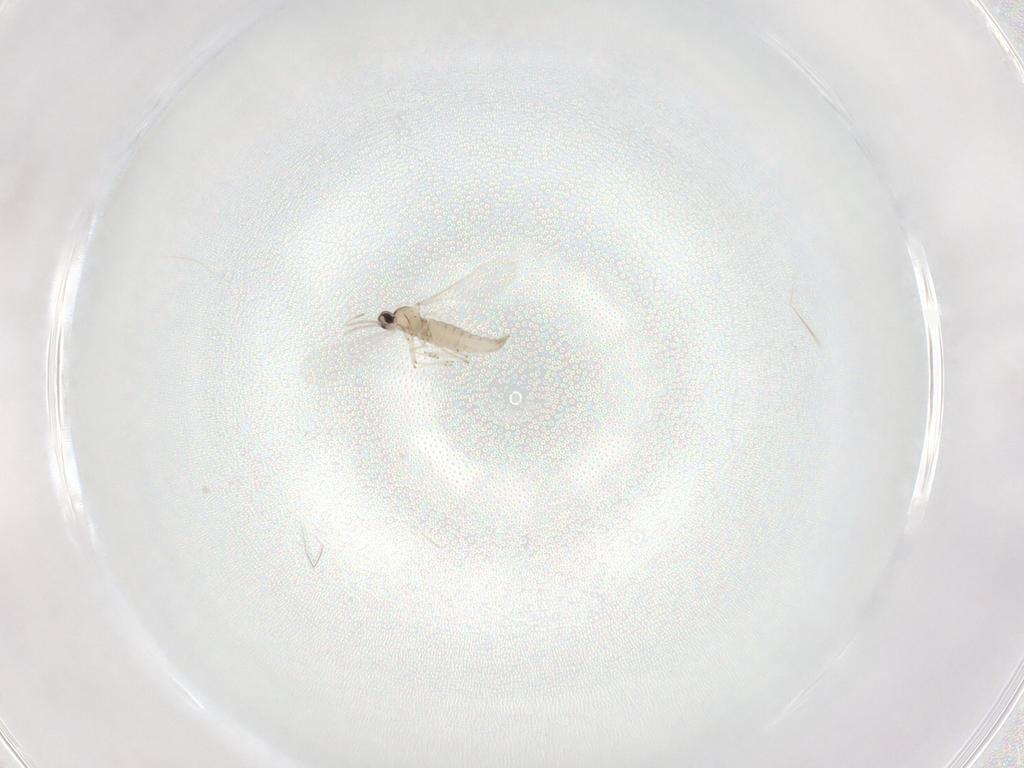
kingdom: Animalia
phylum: Arthropoda
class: Insecta
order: Diptera
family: Cecidomyiidae
